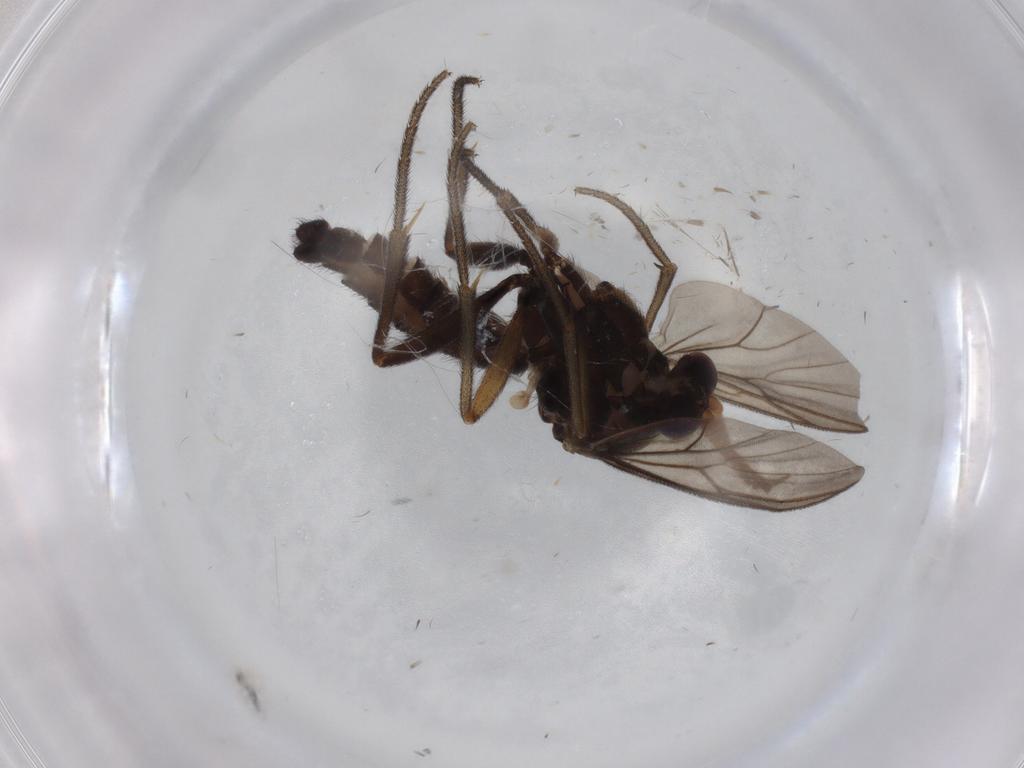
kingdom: Animalia
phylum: Arthropoda
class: Insecta
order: Diptera
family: Mycetophilidae
